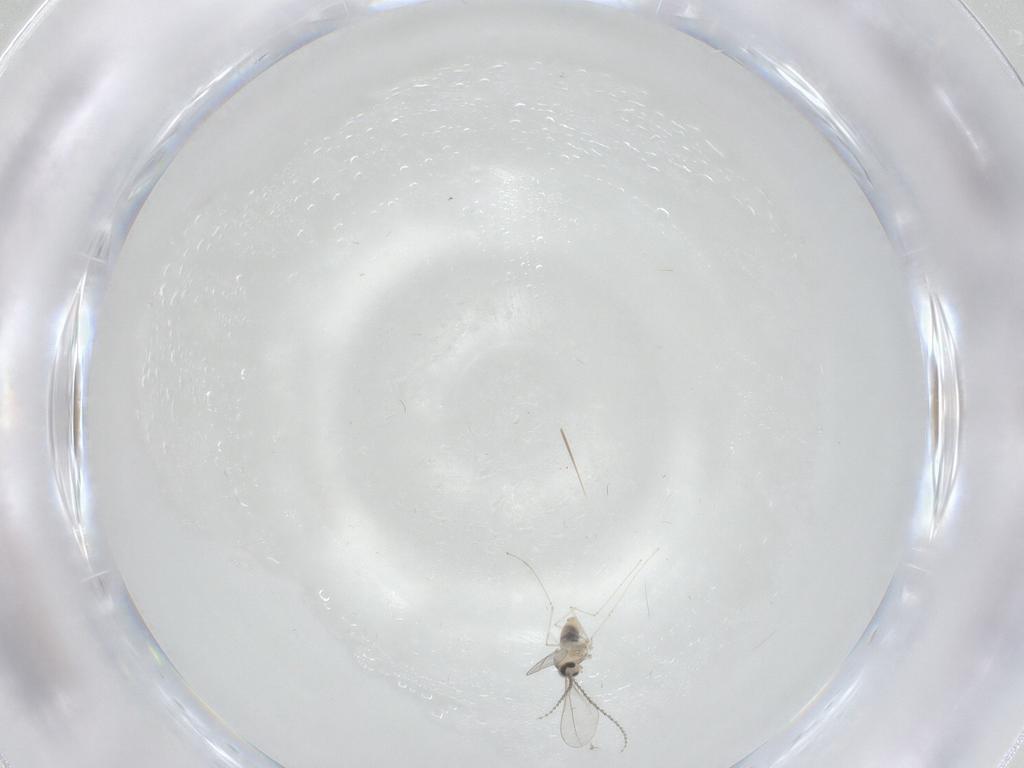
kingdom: Animalia
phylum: Arthropoda
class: Insecta
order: Diptera
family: Cecidomyiidae
